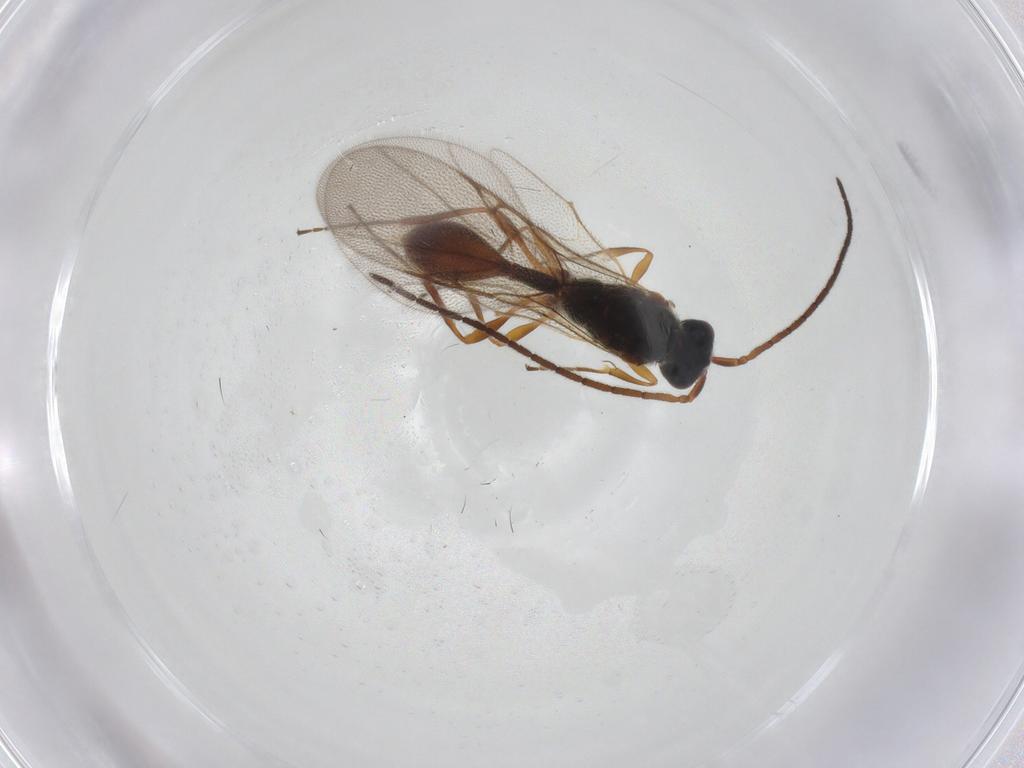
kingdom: Animalia
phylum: Arthropoda
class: Insecta
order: Hymenoptera
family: Diapriidae
